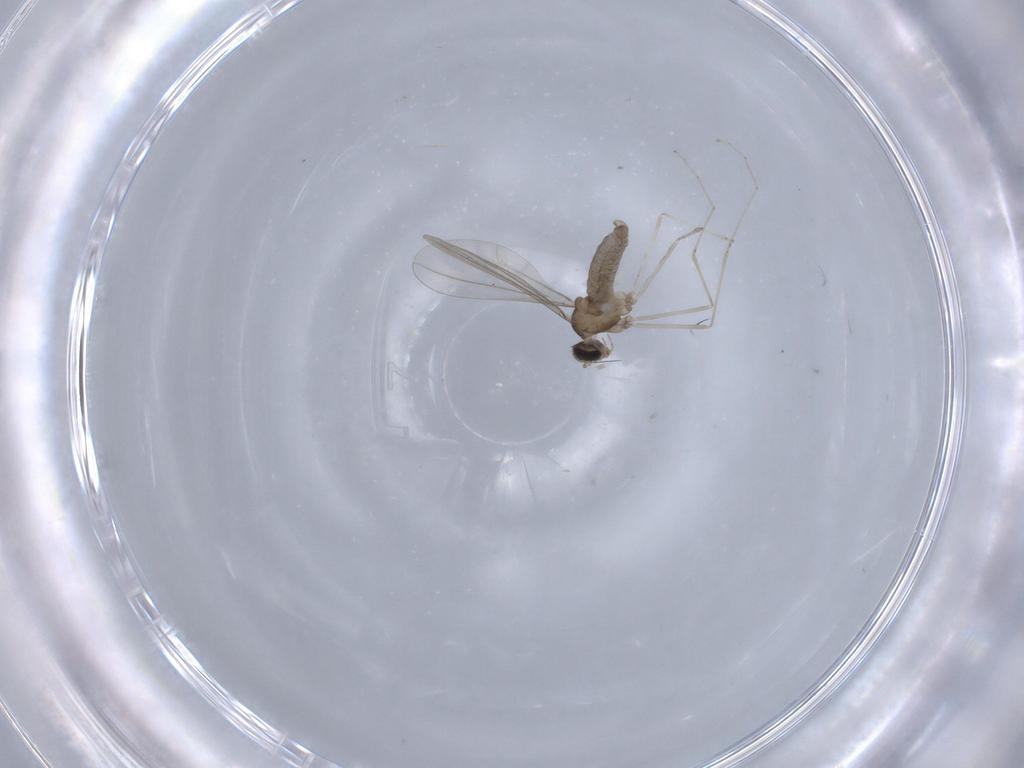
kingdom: Animalia
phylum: Arthropoda
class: Insecta
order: Diptera
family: Cecidomyiidae
